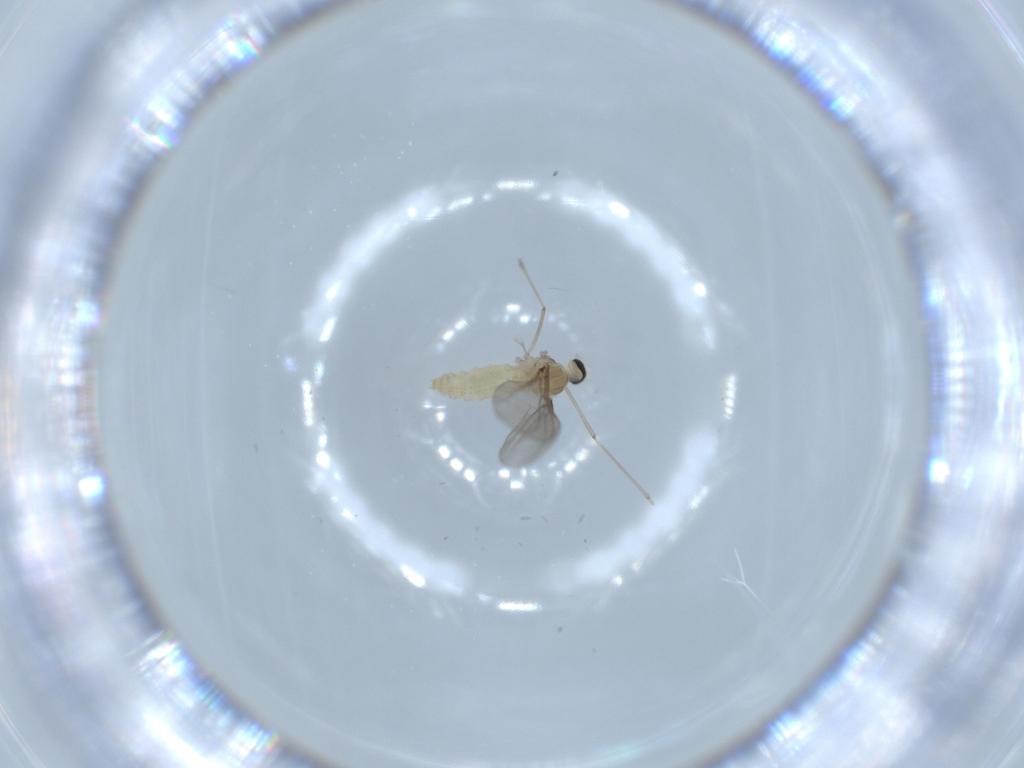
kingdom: Animalia
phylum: Arthropoda
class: Insecta
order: Diptera
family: Cecidomyiidae
